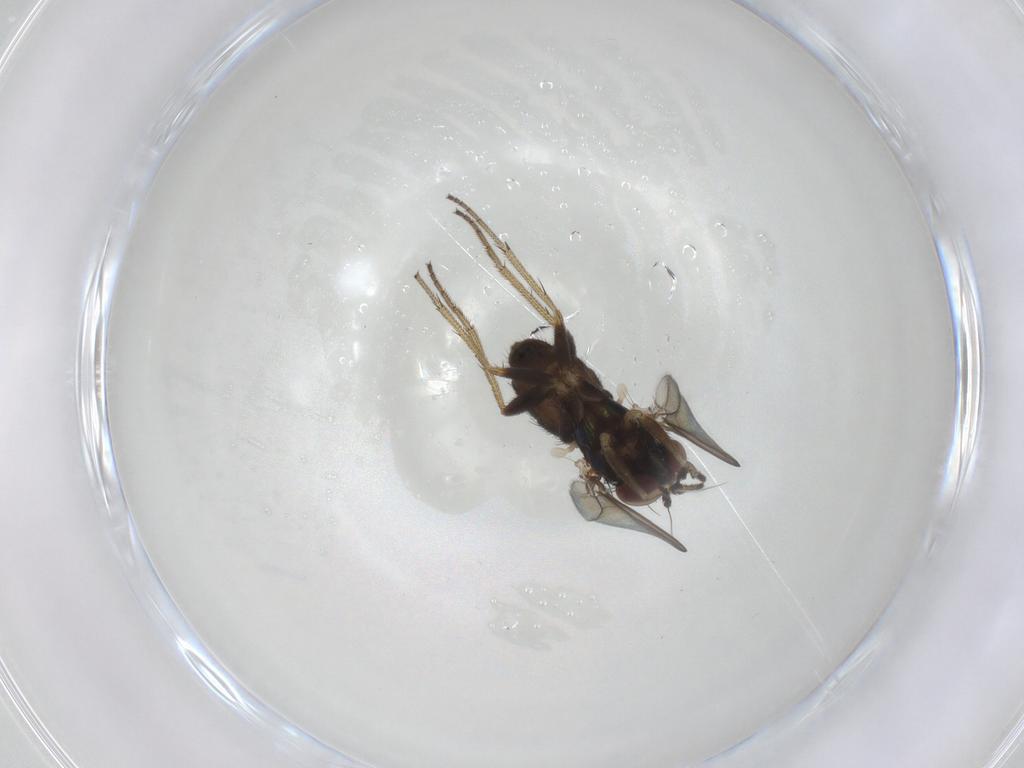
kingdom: Animalia
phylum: Arthropoda
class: Insecta
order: Diptera
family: Dolichopodidae
